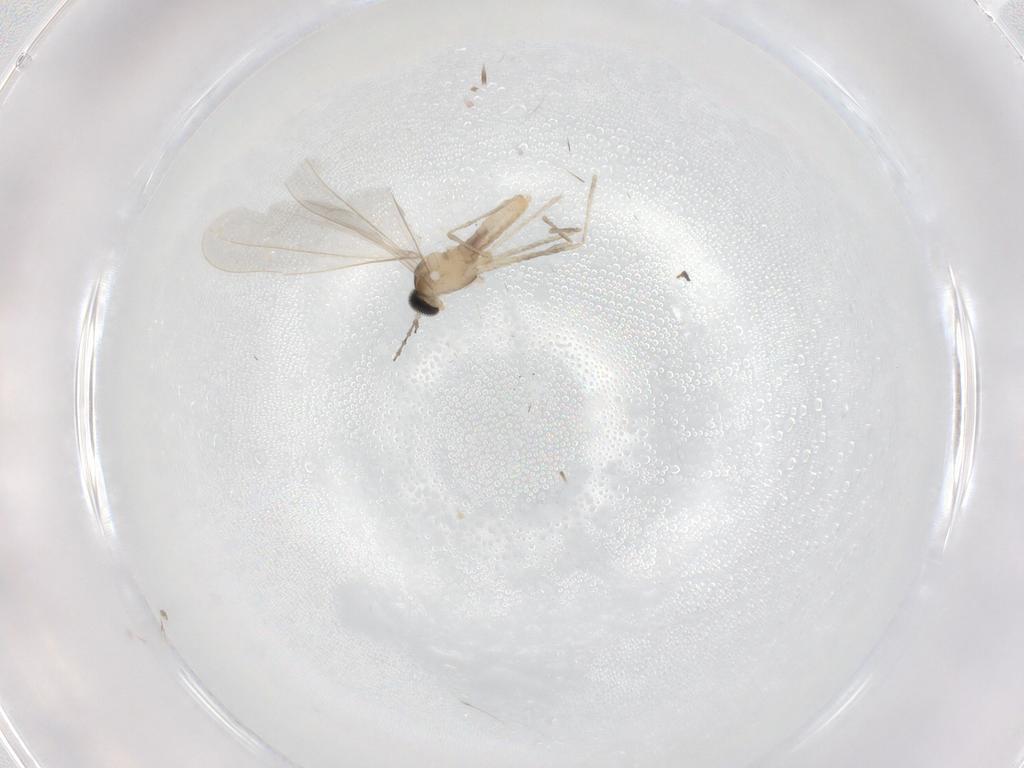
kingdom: Animalia
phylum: Arthropoda
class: Insecta
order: Diptera
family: Cecidomyiidae
